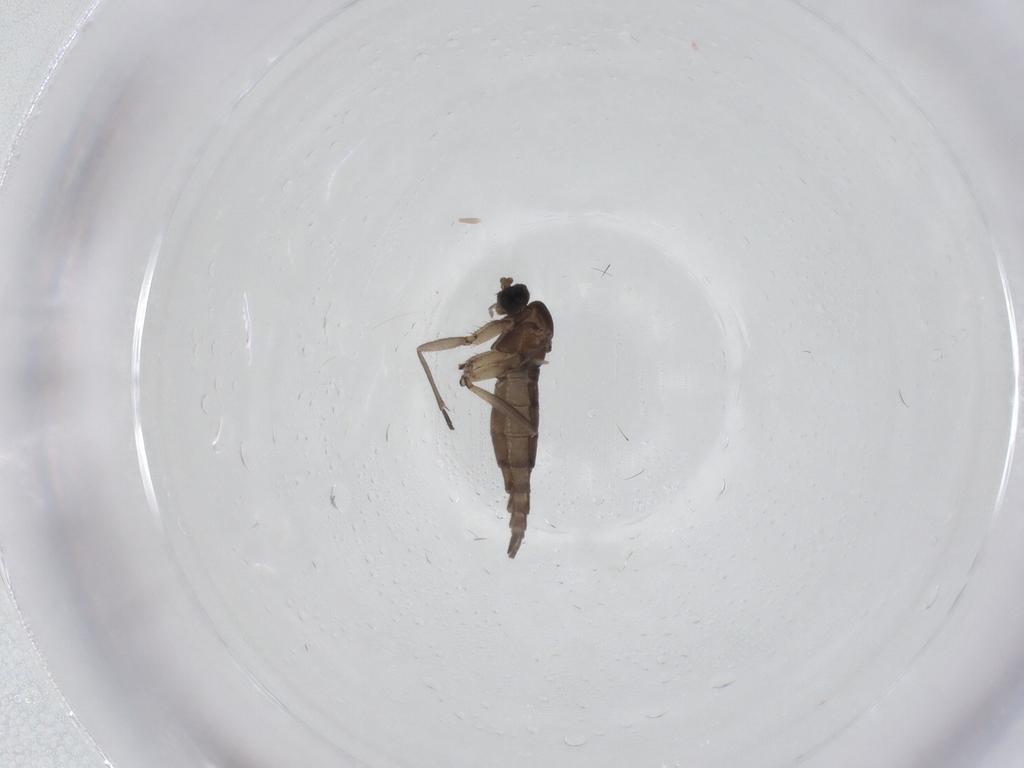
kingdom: Animalia
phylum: Arthropoda
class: Insecta
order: Diptera
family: Sciaridae
